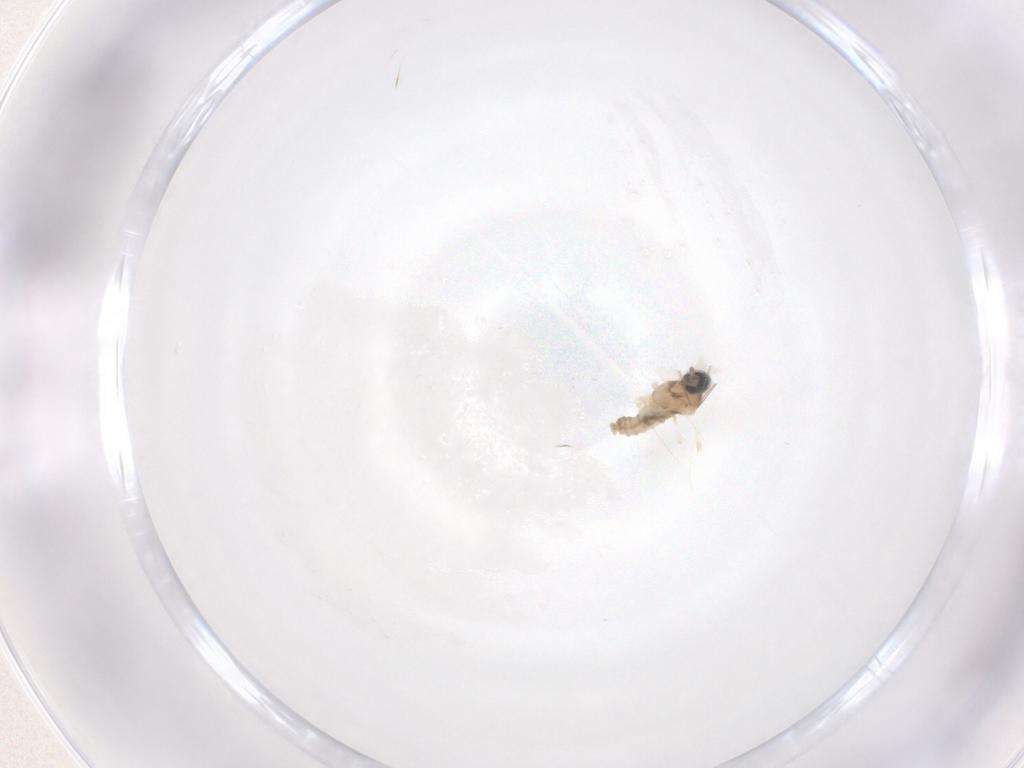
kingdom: Animalia
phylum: Arthropoda
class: Insecta
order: Diptera
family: Cecidomyiidae
